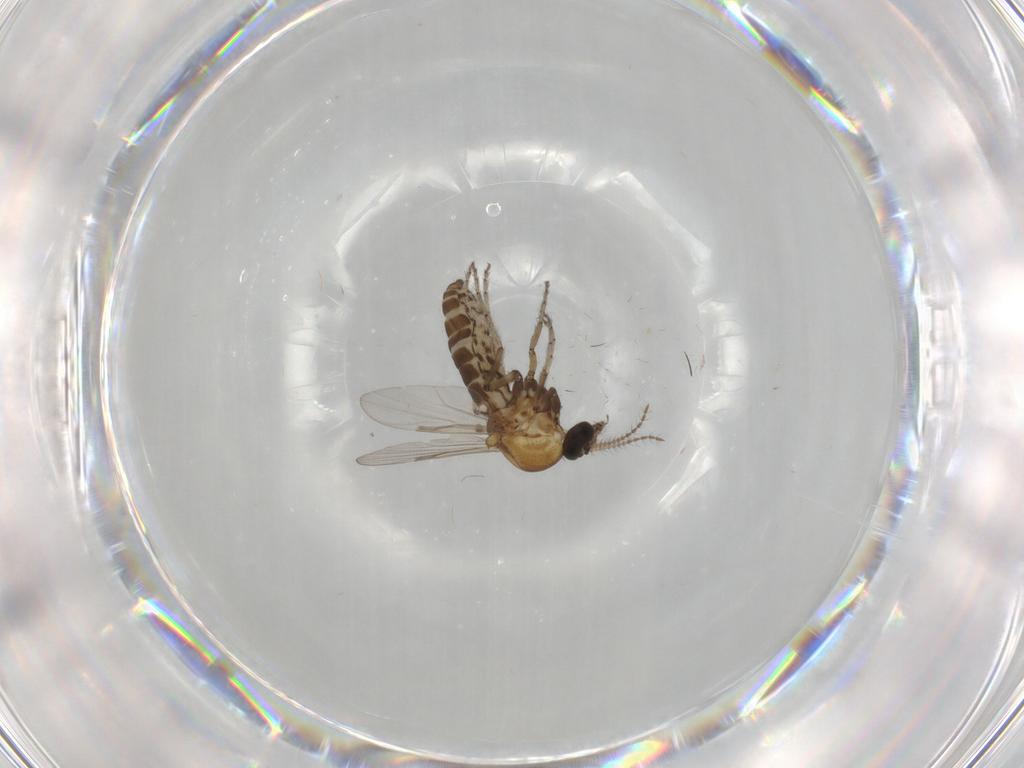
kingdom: Animalia
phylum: Arthropoda
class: Insecta
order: Diptera
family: Ceratopogonidae
